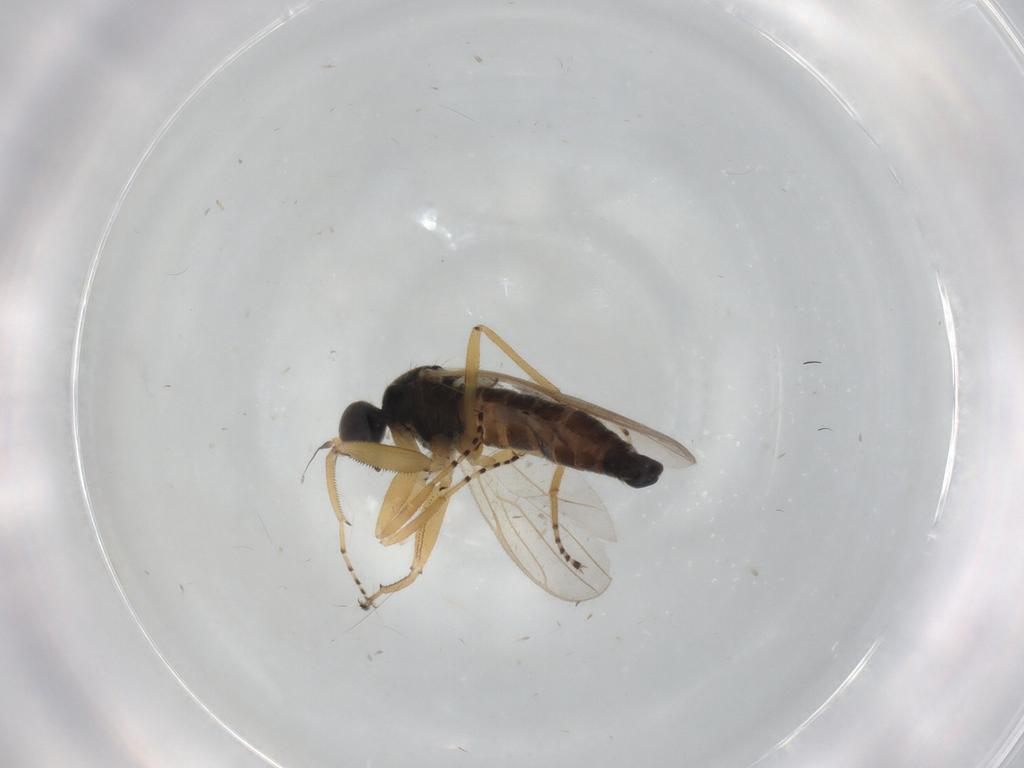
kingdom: Animalia
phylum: Arthropoda
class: Insecta
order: Diptera
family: Hybotidae
